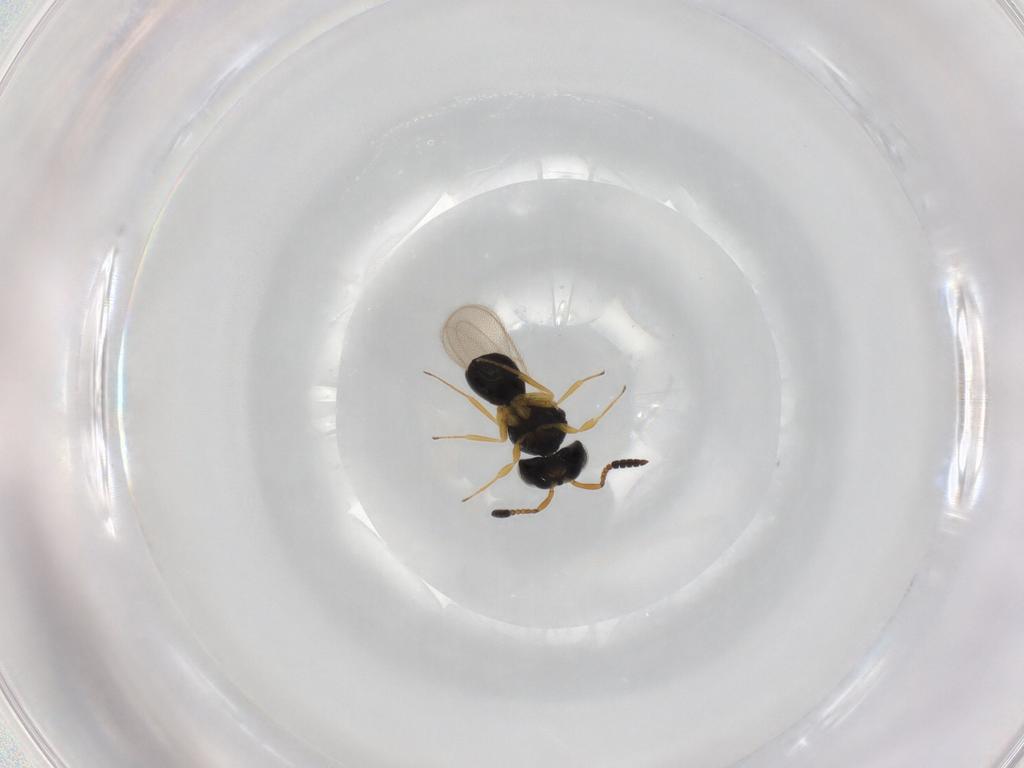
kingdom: Animalia
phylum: Arthropoda
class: Insecta
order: Hymenoptera
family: Scelionidae
